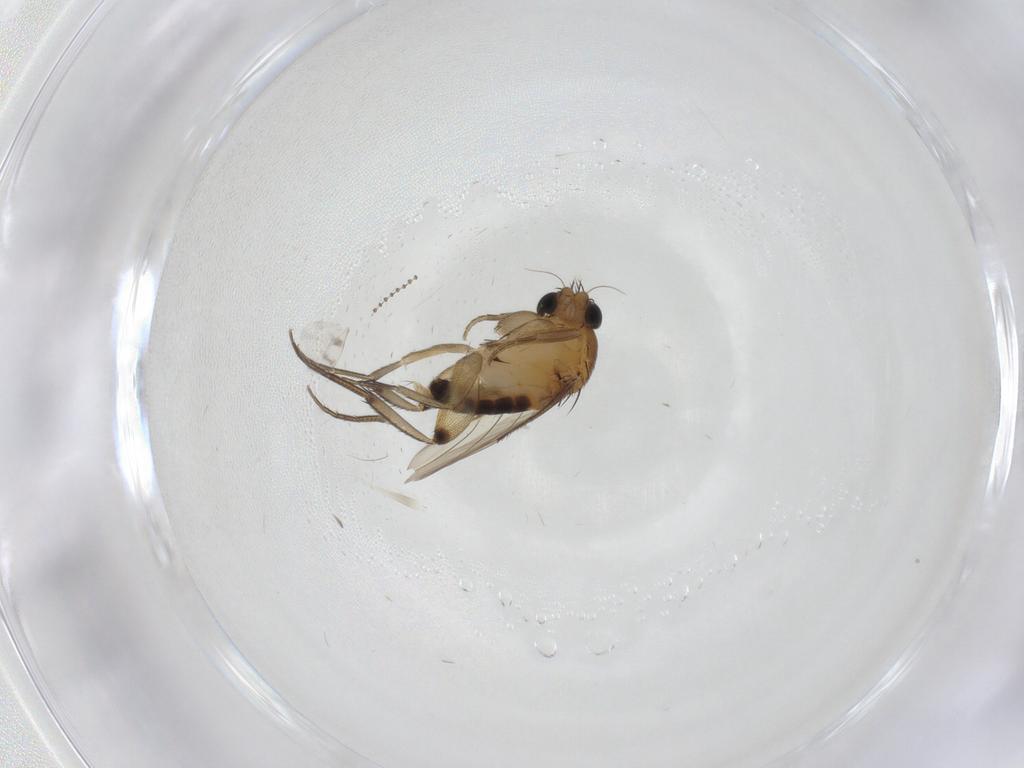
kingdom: Animalia
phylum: Arthropoda
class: Insecta
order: Diptera
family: Phoridae
